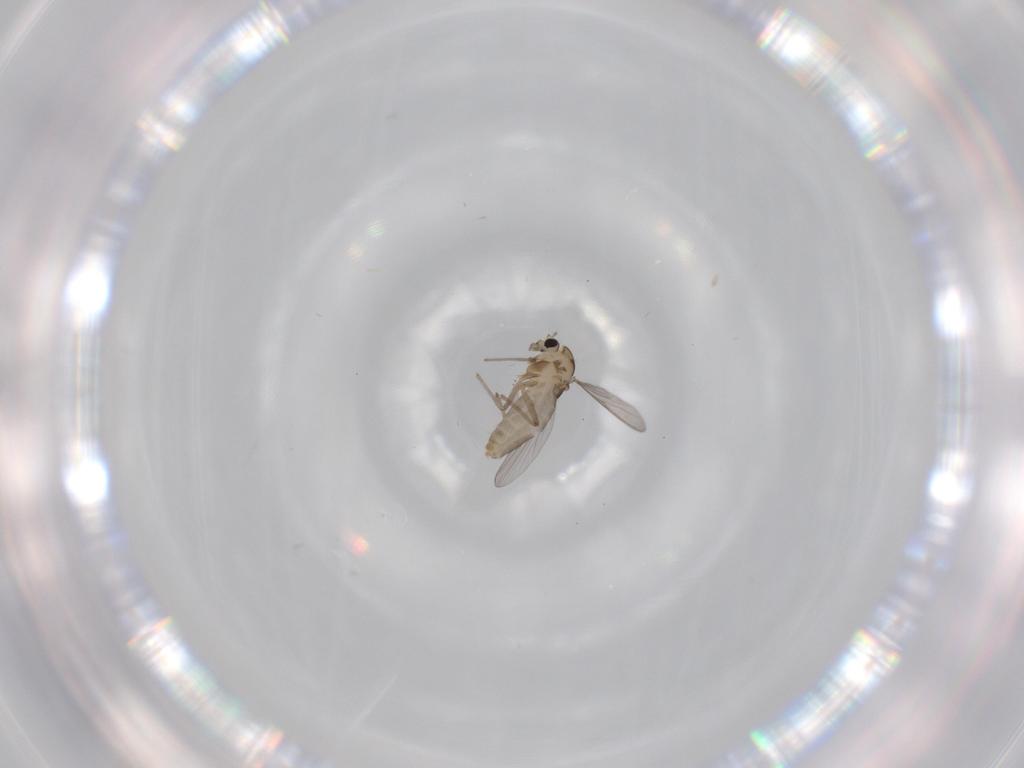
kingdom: Animalia
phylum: Arthropoda
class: Insecta
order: Diptera
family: Chironomidae
